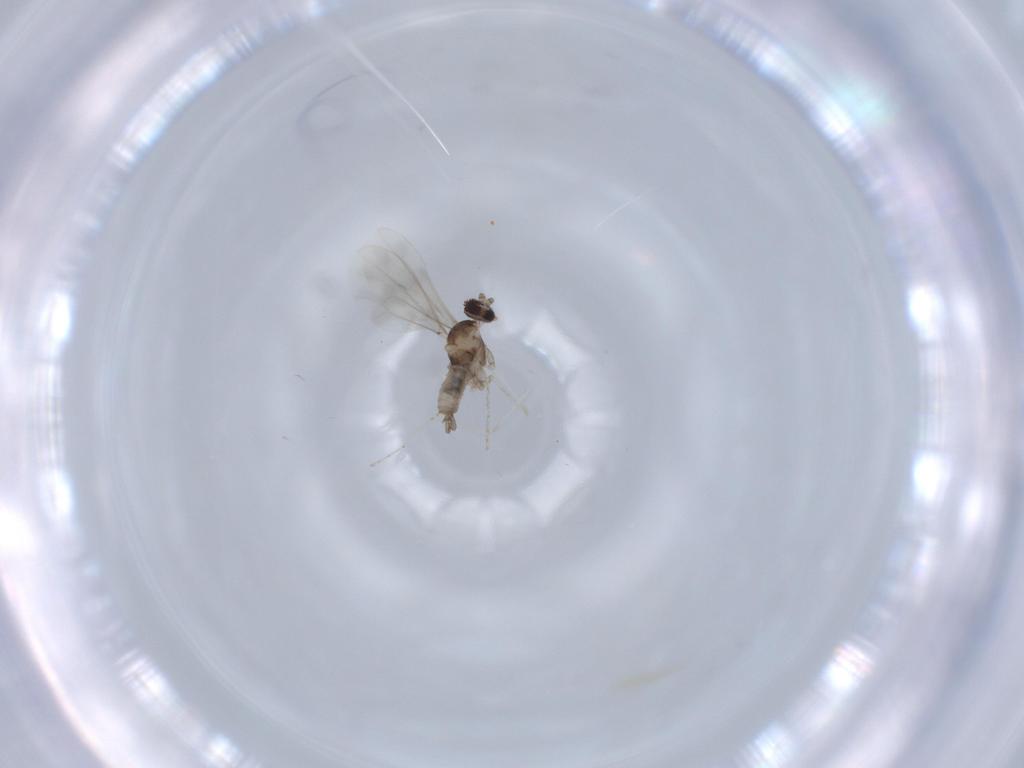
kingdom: Animalia
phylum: Arthropoda
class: Insecta
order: Diptera
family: Cecidomyiidae
